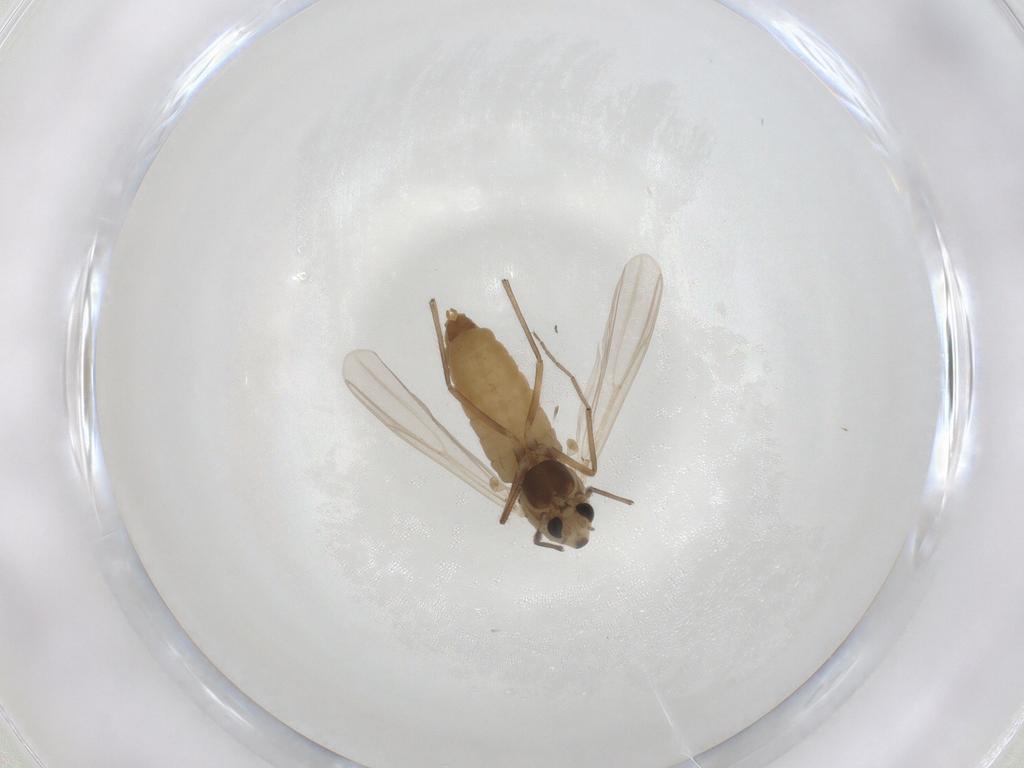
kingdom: Animalia
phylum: Arthropoda
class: Insecta
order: Diptera
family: Chironomidae
